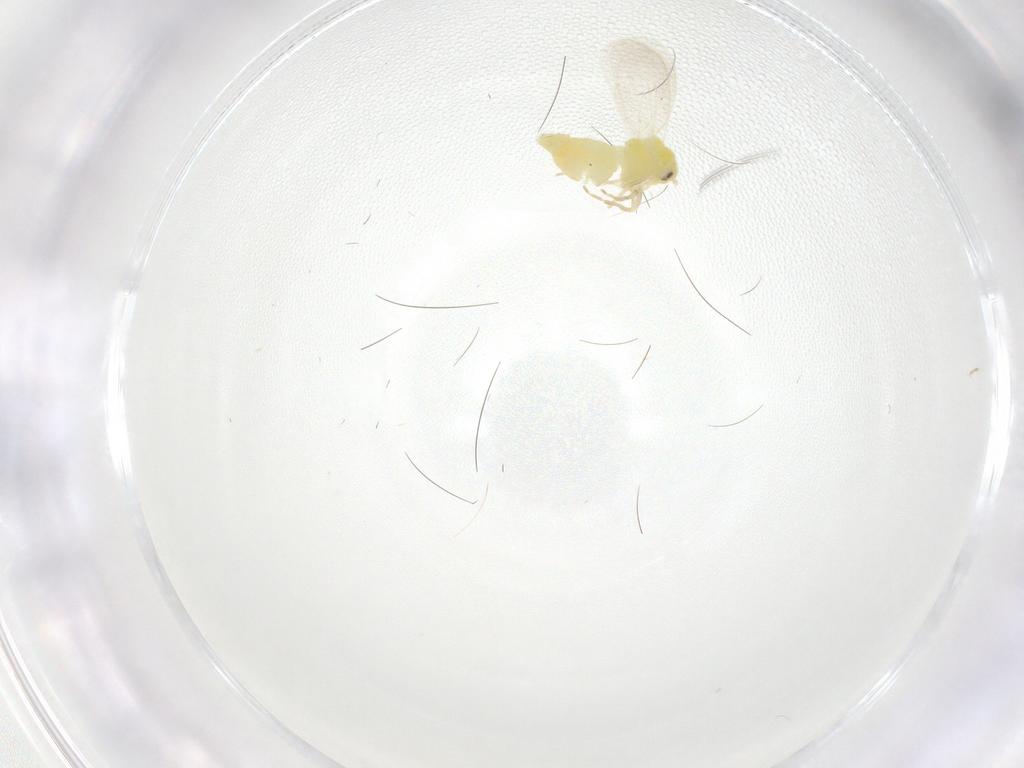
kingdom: Animalia
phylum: Arthropoda
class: Insecta
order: Hemiptera
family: Aleyrodidae
